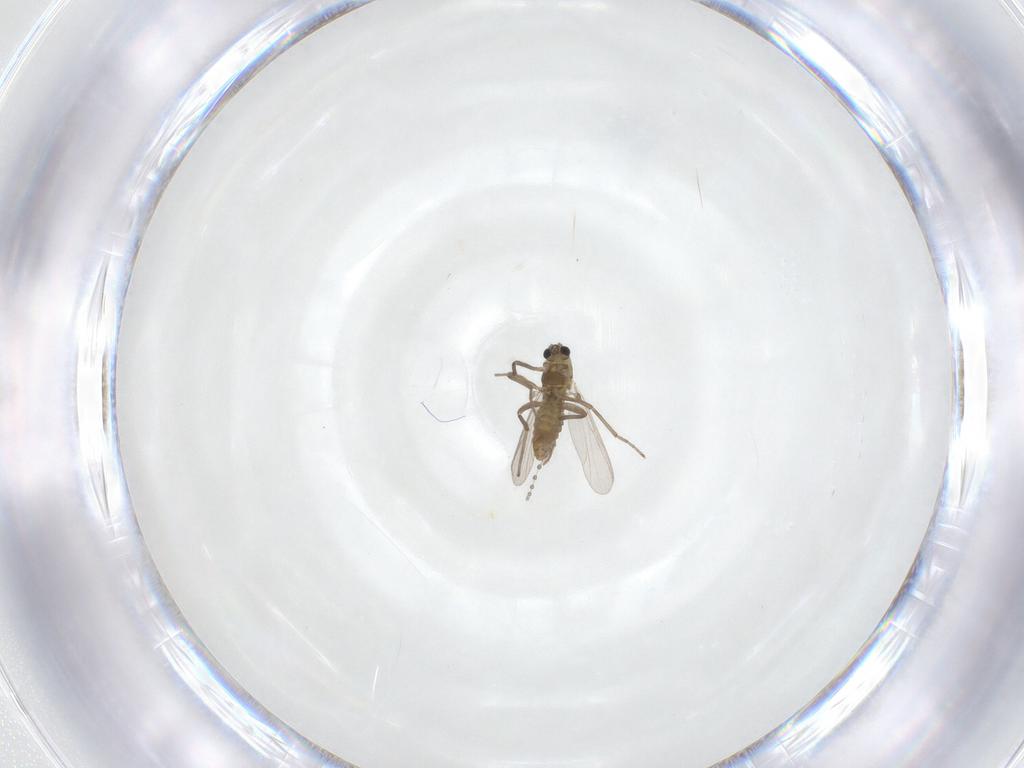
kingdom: Animalia
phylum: Arthropoda
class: Insecta
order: Diptera
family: Chironomidae
